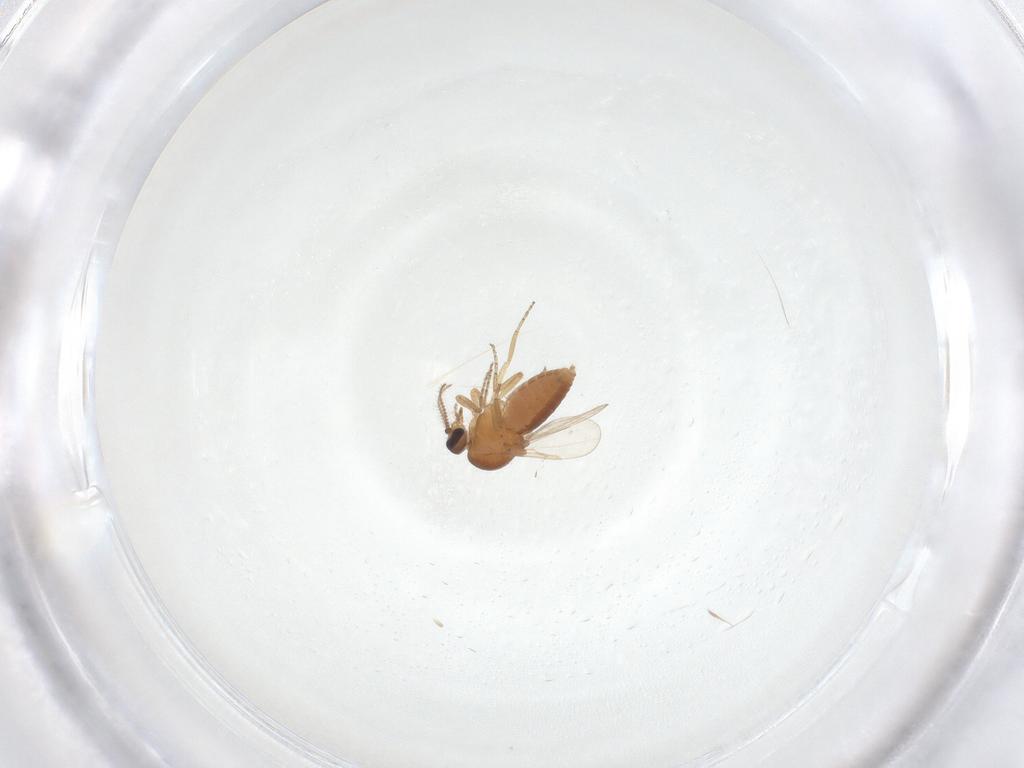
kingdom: Animalia
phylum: Arthropoda
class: Insecta
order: Diptera
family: Ceratopogonidae
